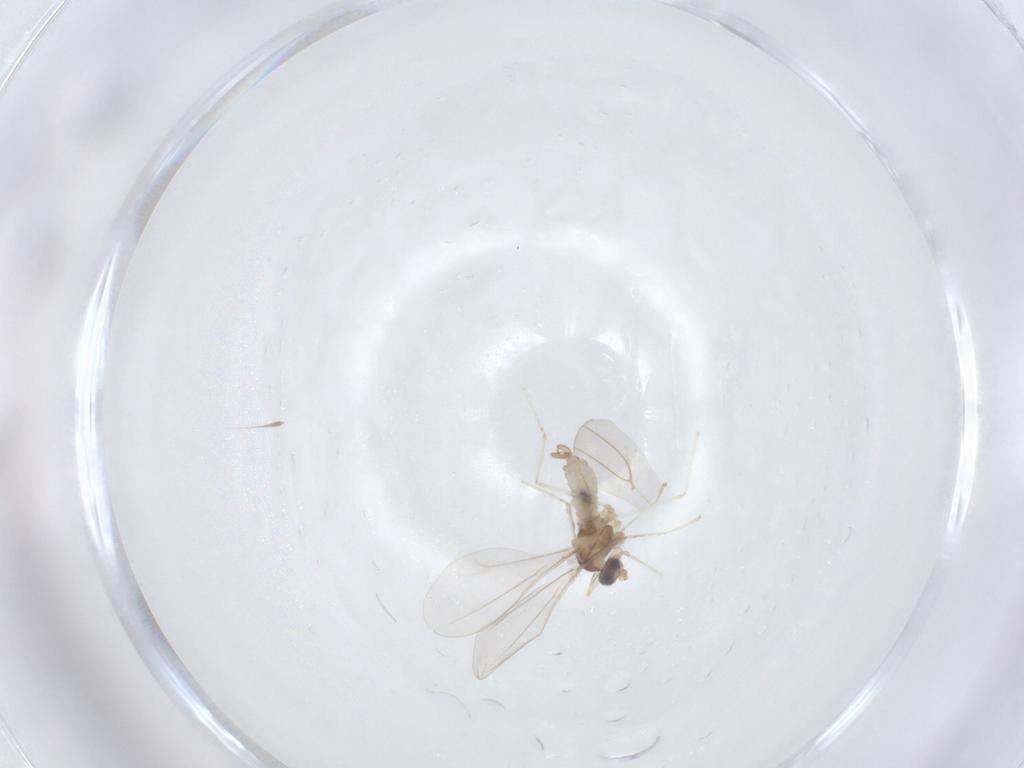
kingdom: Animalia
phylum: Arthropoda
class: Insecta
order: Diptera
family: Cecidomyiidae
